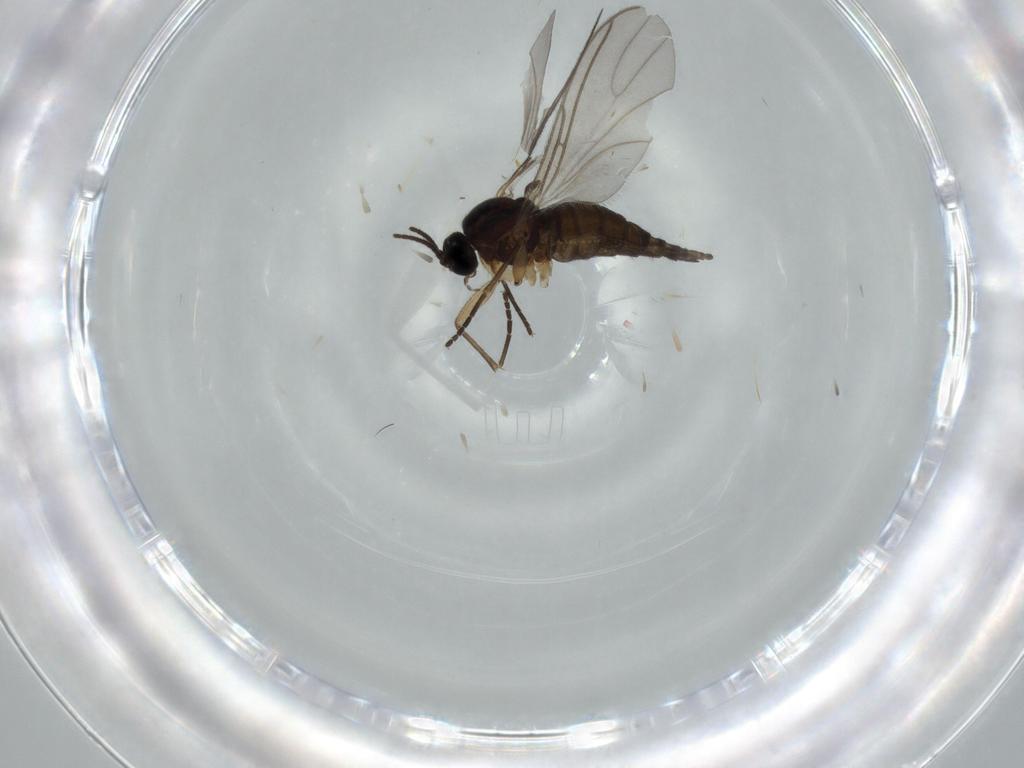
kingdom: Animalia
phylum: Arthropoda
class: Insecta
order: Diptera
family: Sciaridae
